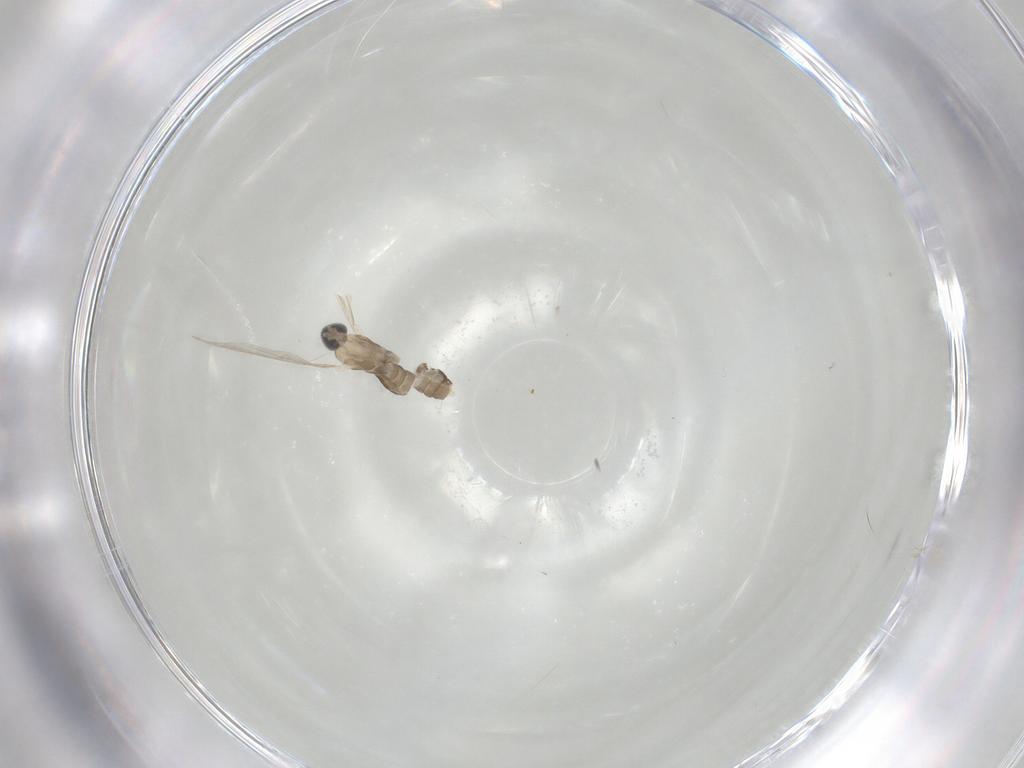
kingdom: Animalia
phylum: Arthropoda
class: Insecta
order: Diptera
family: Cecidomyiidae
